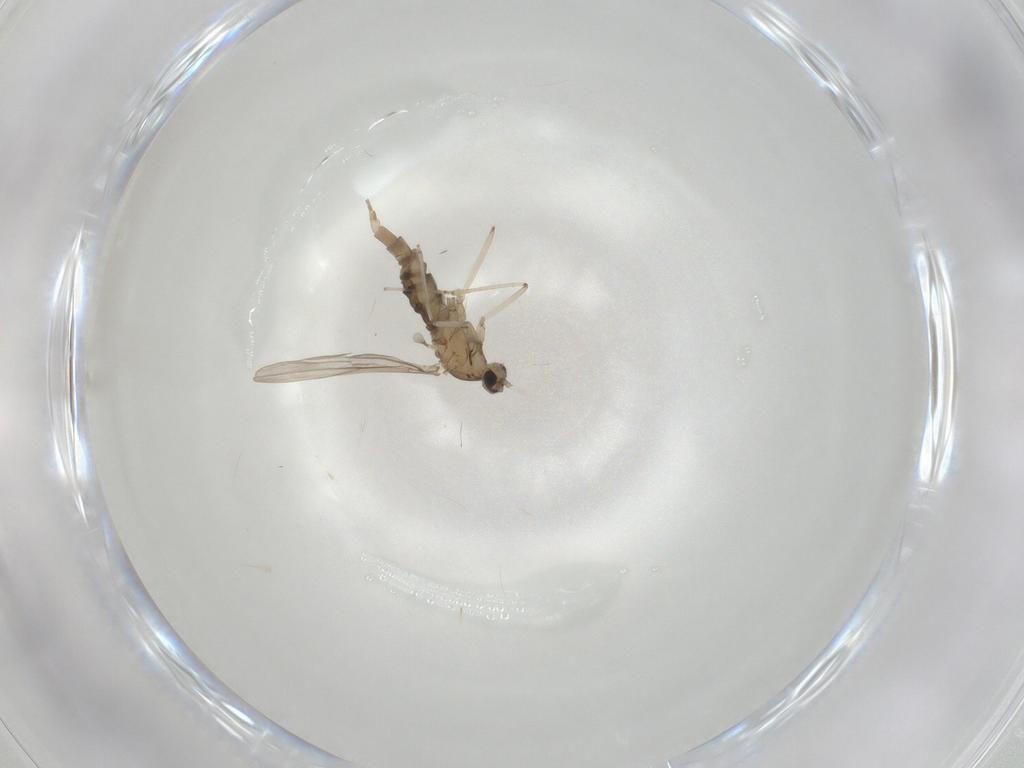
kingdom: Animalia
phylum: Arthropoda
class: Insecta
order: Diptera
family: Cecidomyiidae
